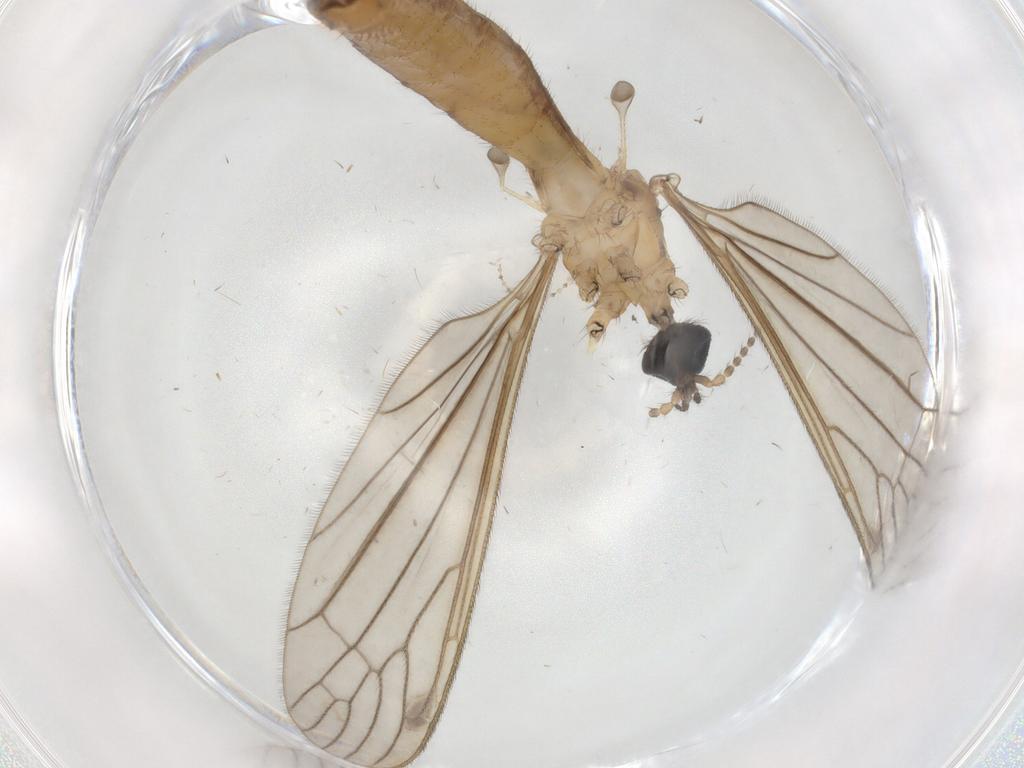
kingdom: Animalia
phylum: Arthropoda
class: Insecta
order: Diptera
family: Limoniidae
